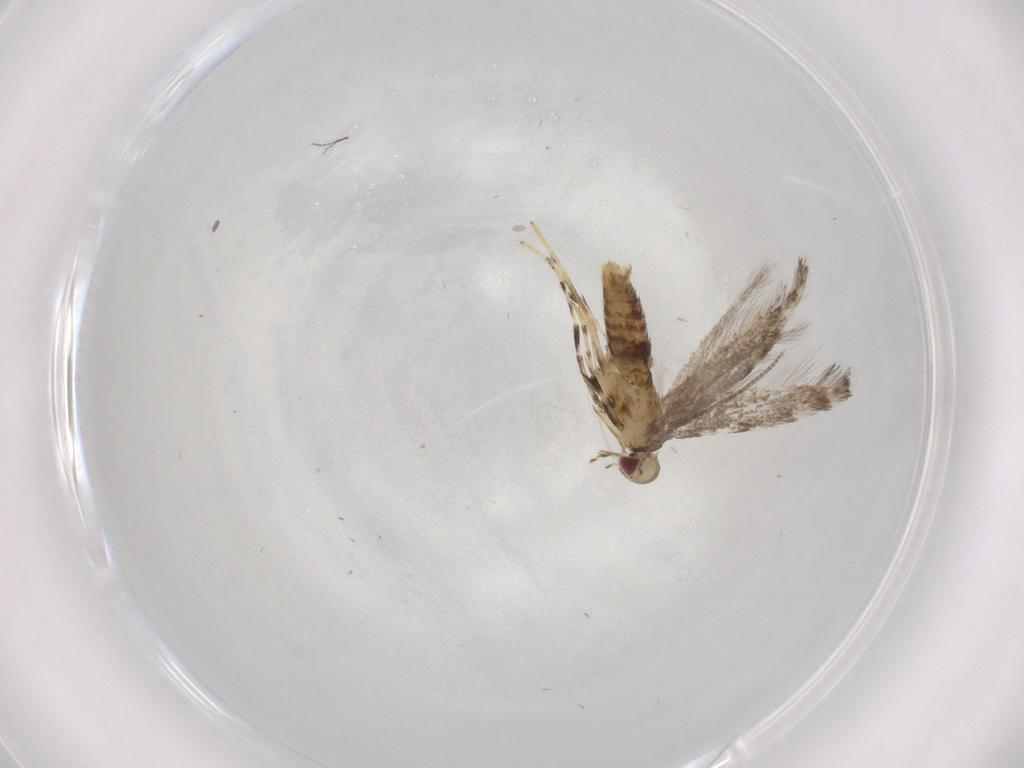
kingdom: Animalia
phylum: Arthropoda
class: Insecta
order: Lepidoptera
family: Gracillariidae
